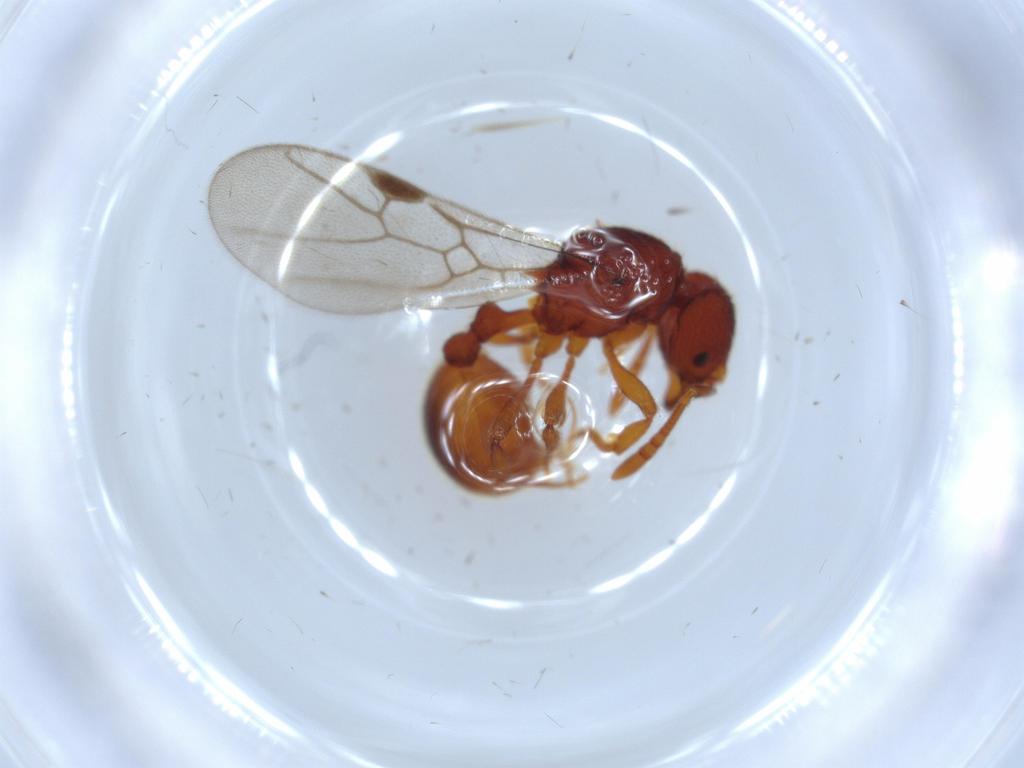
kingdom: Animalia
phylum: Arthropoda
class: Insecta
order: Hymenoptera
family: Formicidae
